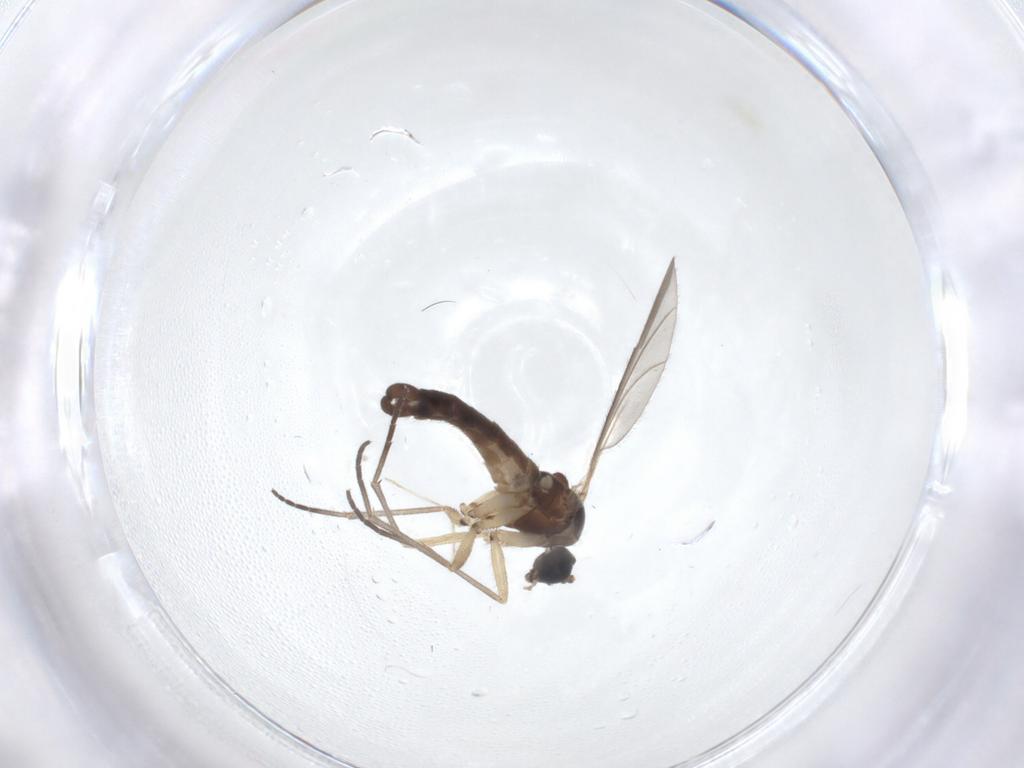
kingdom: Animalia
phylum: Arthropoda
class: Insecta
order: Diptera
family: Sciaridae
